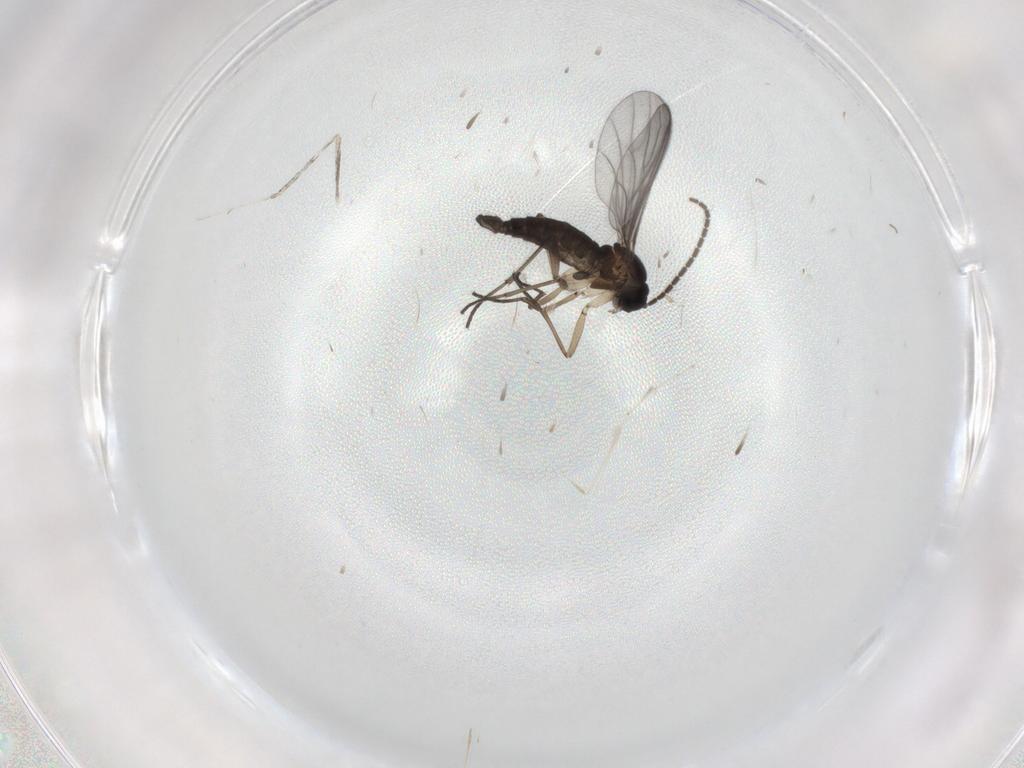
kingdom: Animalia
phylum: Arthropoda
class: Insecta
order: Diptera
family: Sciaridae
